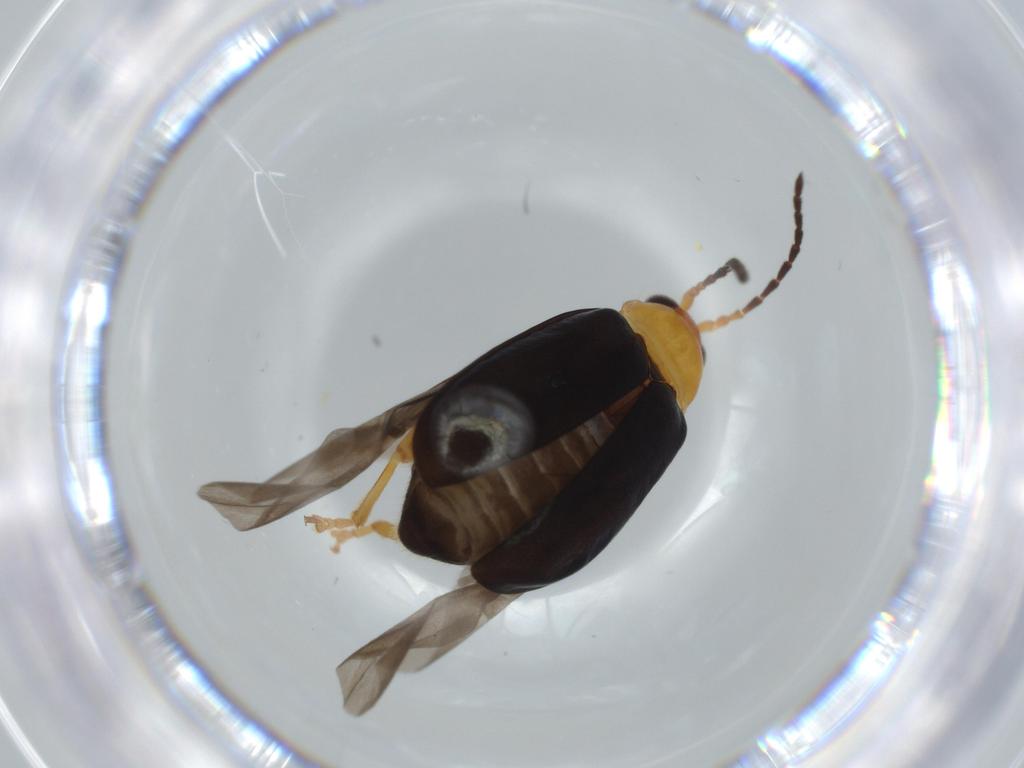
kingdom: Animalia
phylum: Arthropoda
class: Insecta
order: Coleoptera
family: Chrysomelidae
